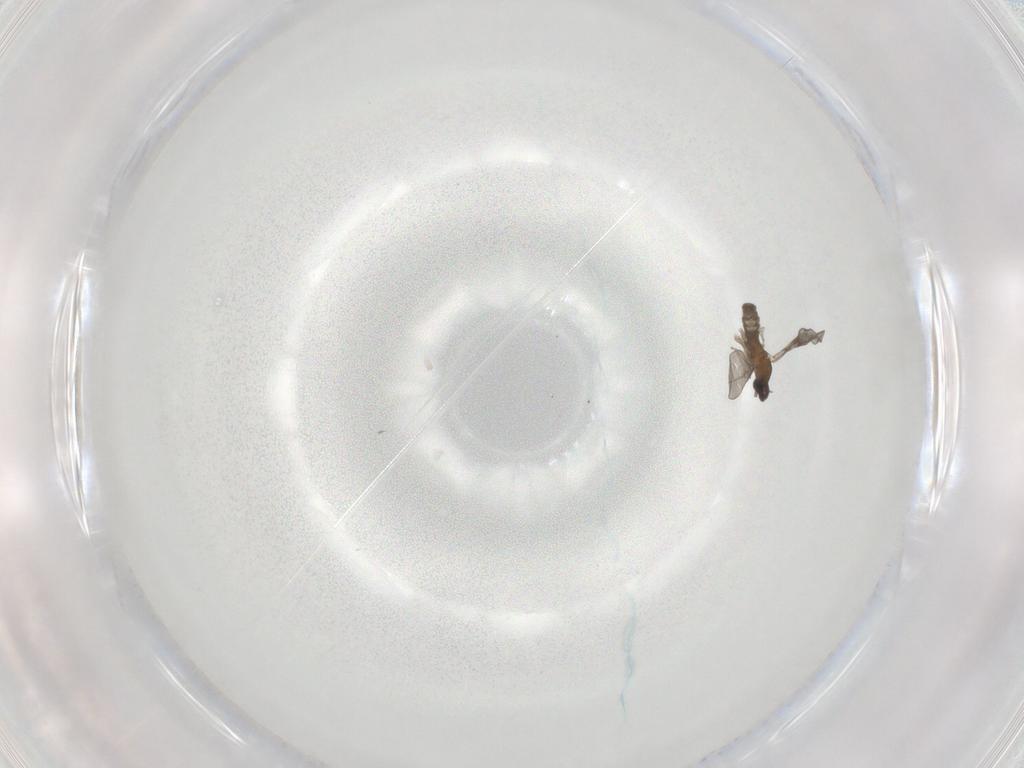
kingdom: Animalia
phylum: Arthropoda
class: Insecta
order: Diptera
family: Cecidomyiidae
